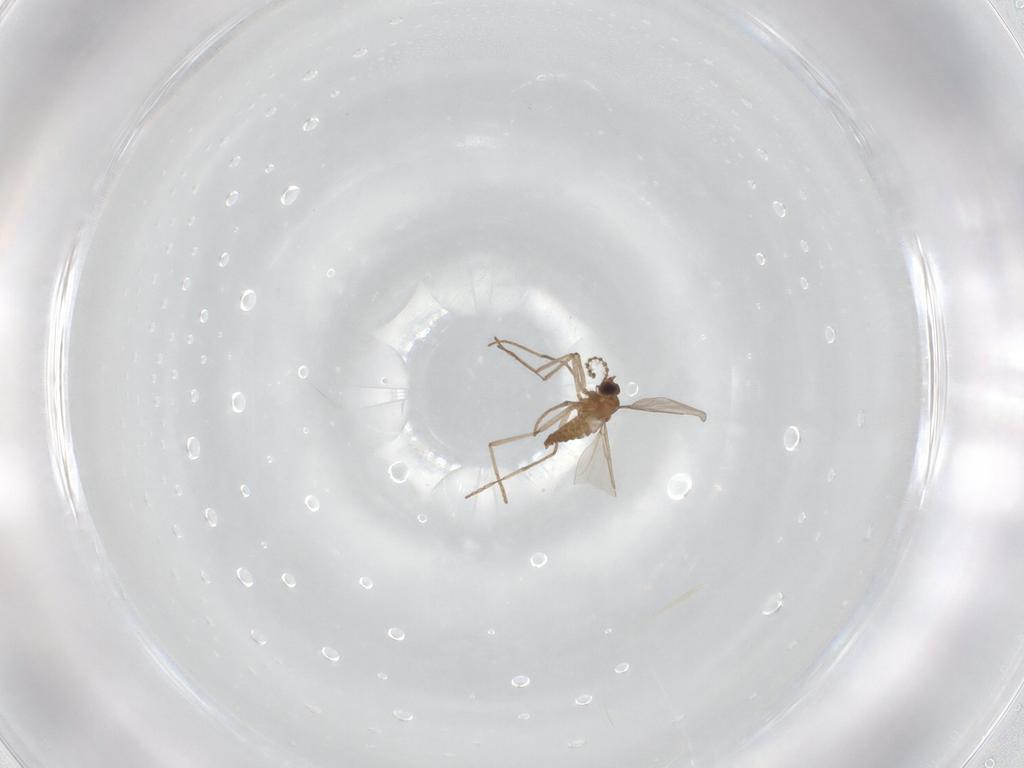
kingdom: Animalia
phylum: Arthropoda
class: Insecta
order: Diptera
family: Cecidomyiidae
